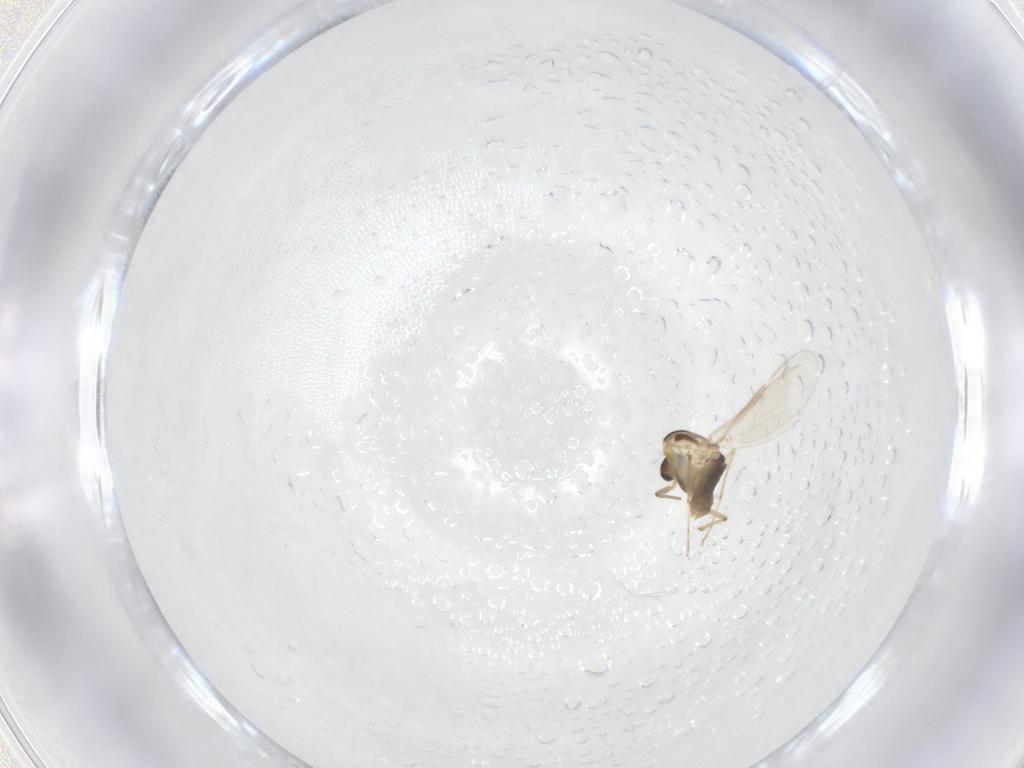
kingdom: Animalia
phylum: Arthropoda
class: Insecta
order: Diptera
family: Chironomidae
